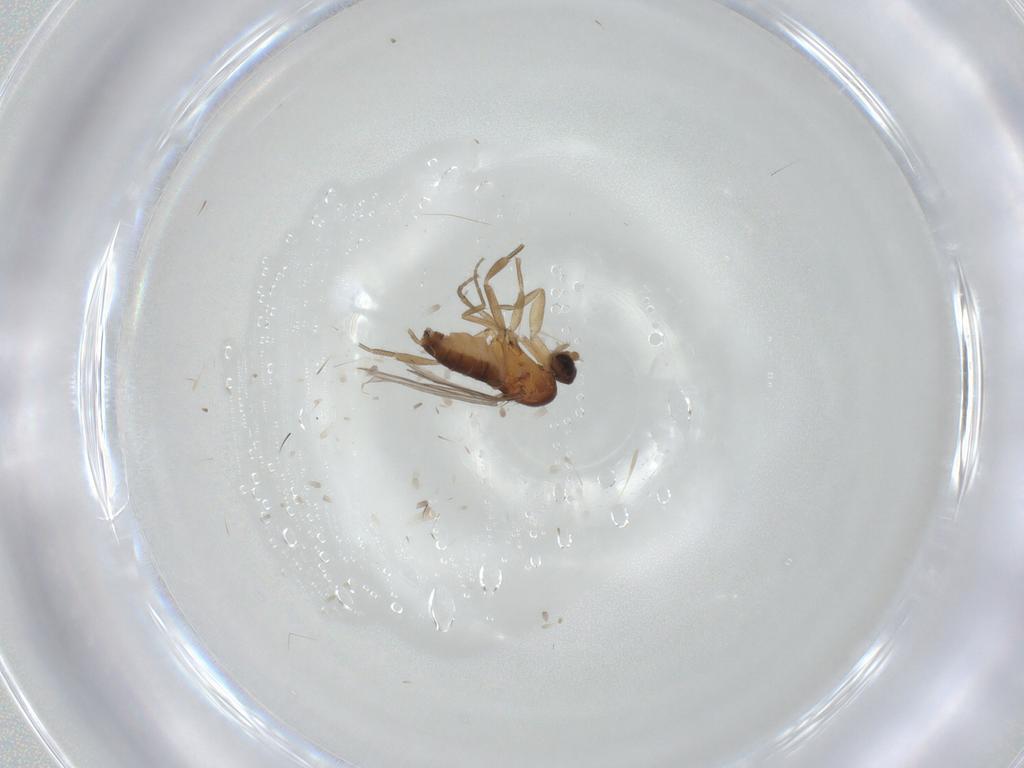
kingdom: Animalia
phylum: Arthropoda
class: Insecta
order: Diptera
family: Phoridae
